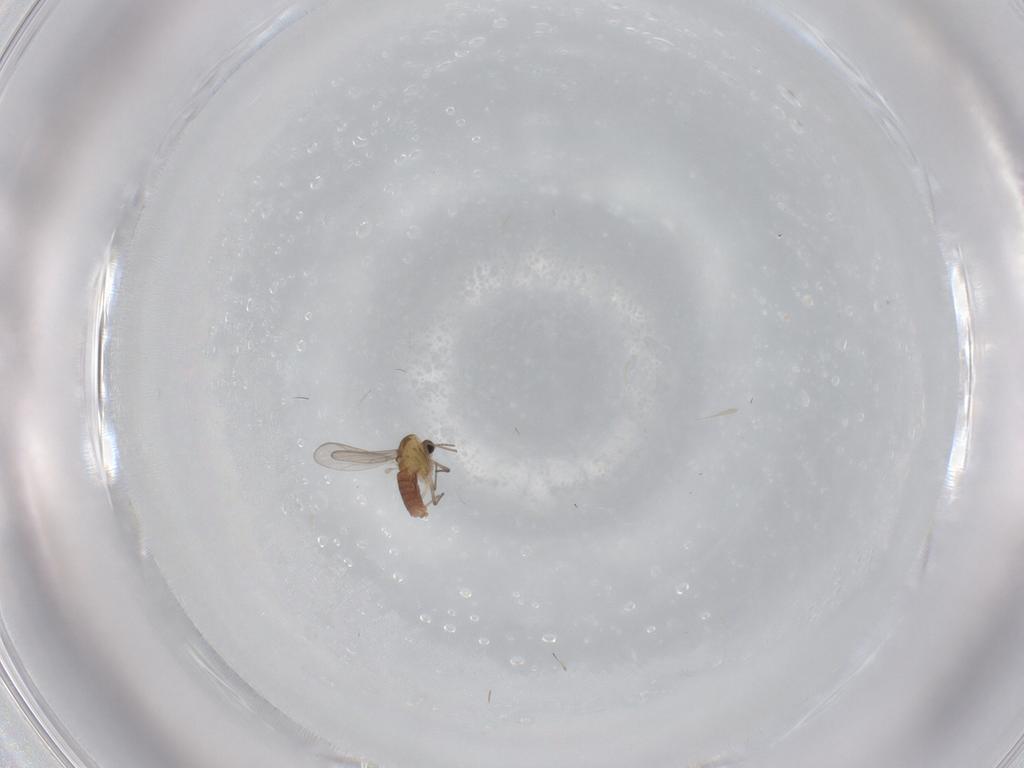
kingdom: Animalia
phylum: Arthropoda
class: Insecta
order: Diptera
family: Chironomidae
